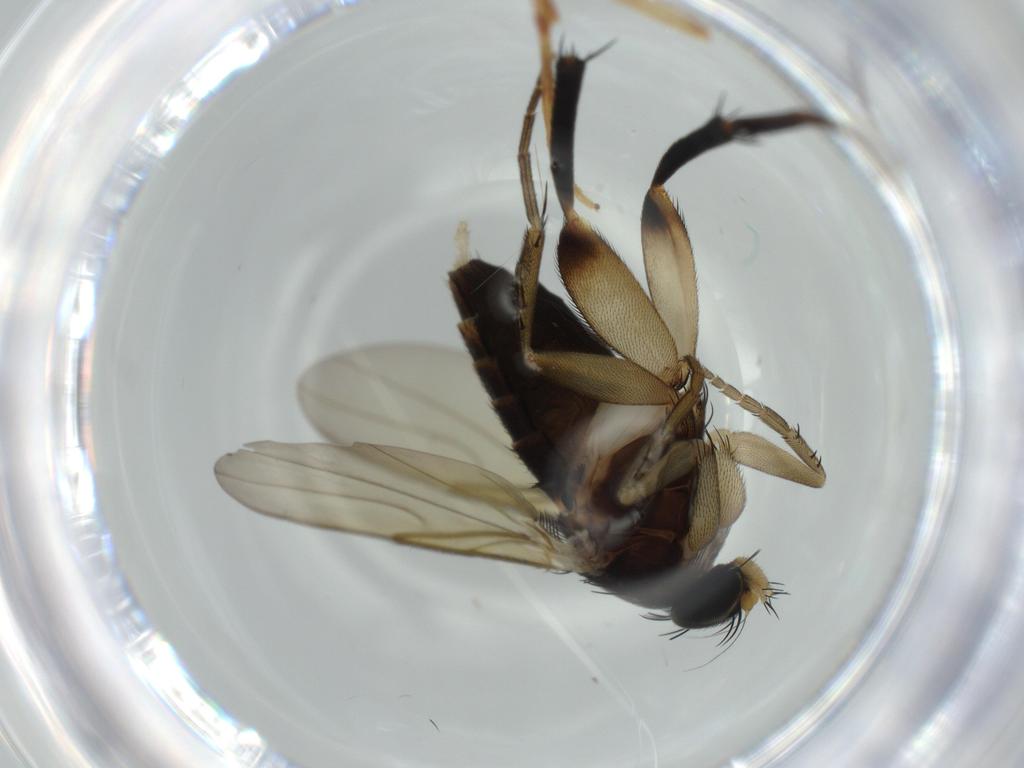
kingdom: Animalia
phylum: Arthropoda
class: Insecta
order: Diptera
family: Phoridae
